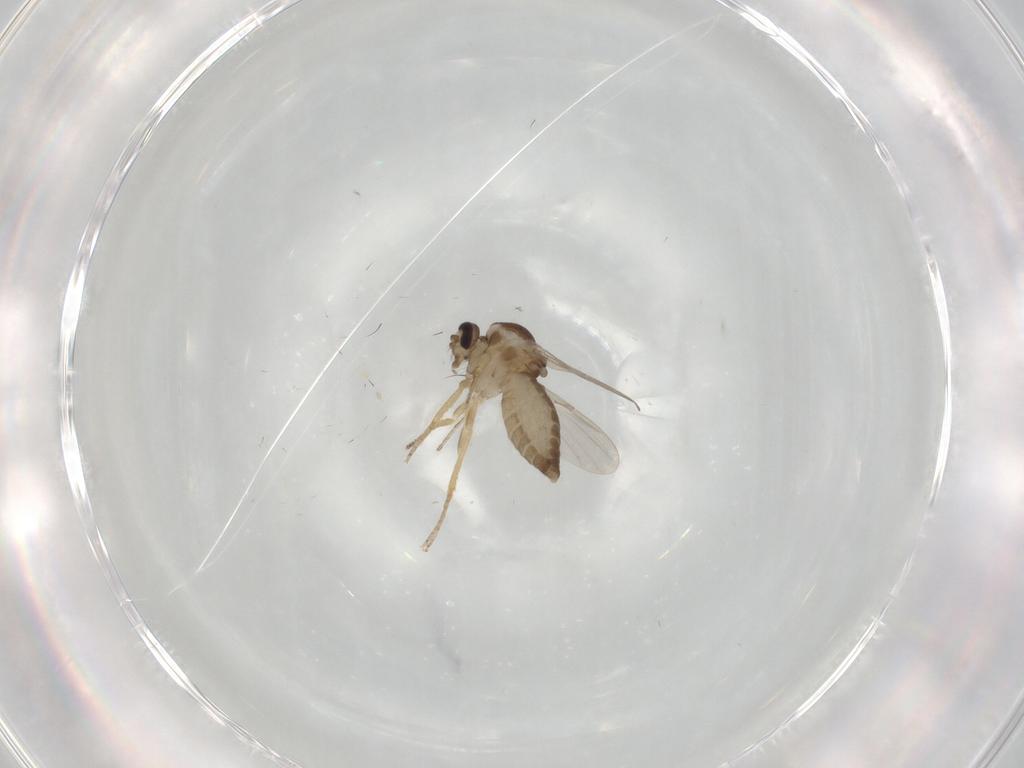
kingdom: Animalia
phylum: Arthropoda
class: Insecta
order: Diptera
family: Ceratopogonidae
